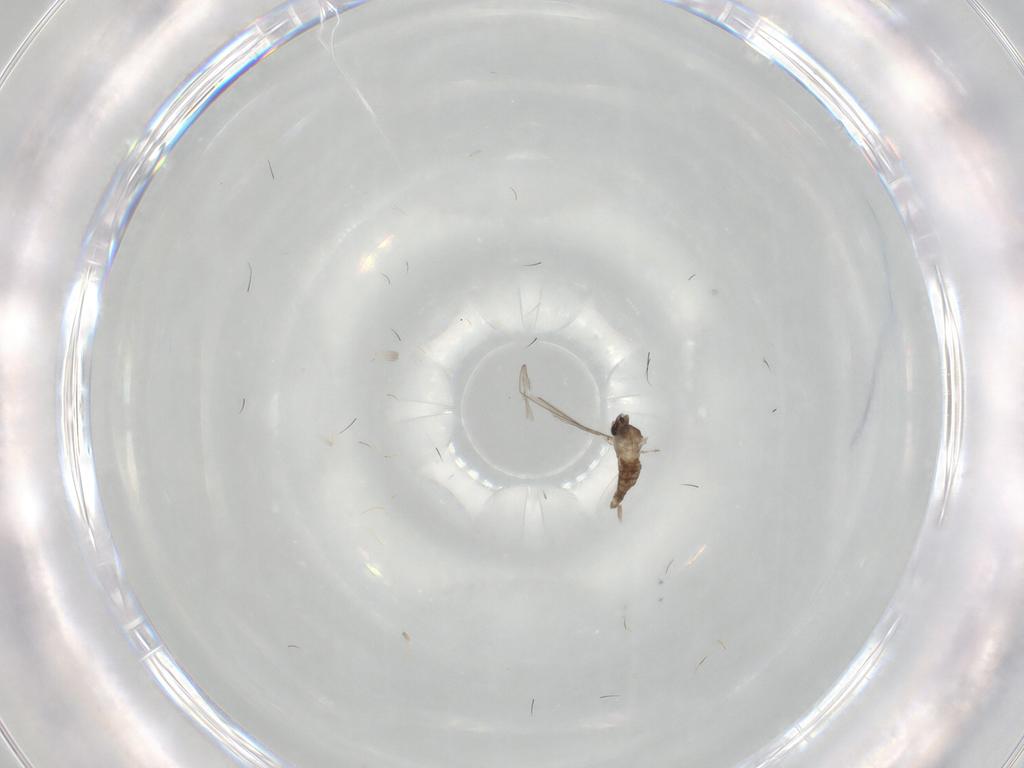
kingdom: Animalia
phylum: Arthropoda
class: Insecta
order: Diptera
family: Cecidomyiidae
